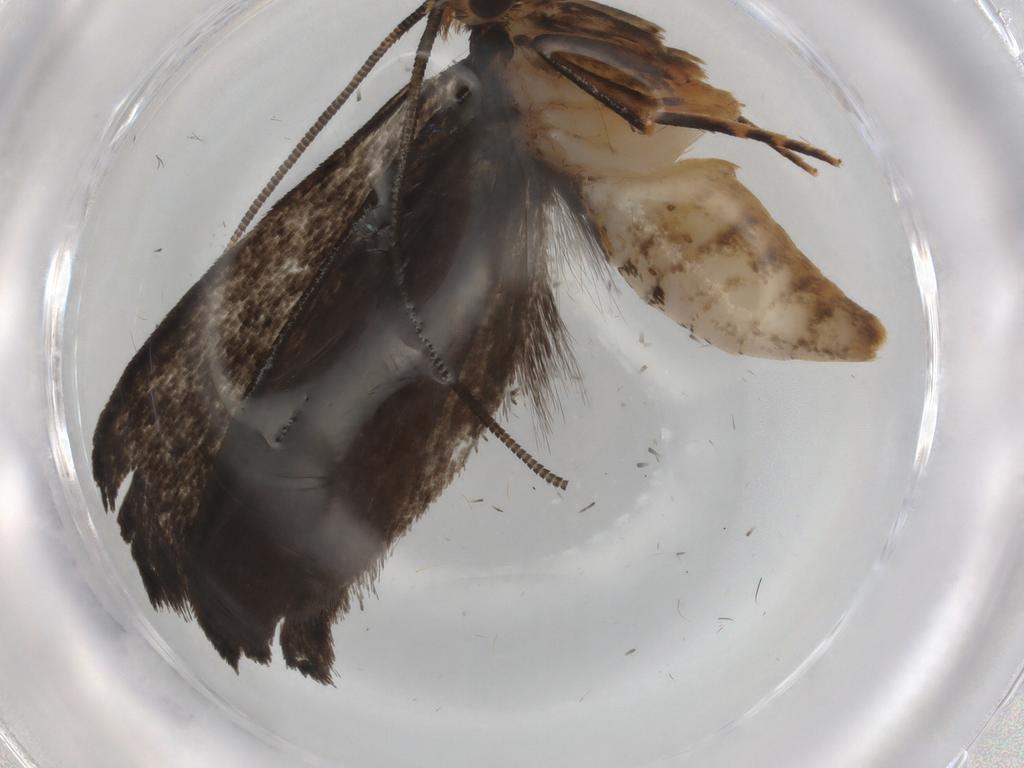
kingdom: Animalia
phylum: Arthropoda
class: Insecta
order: Lepidoptera
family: Tineidae
